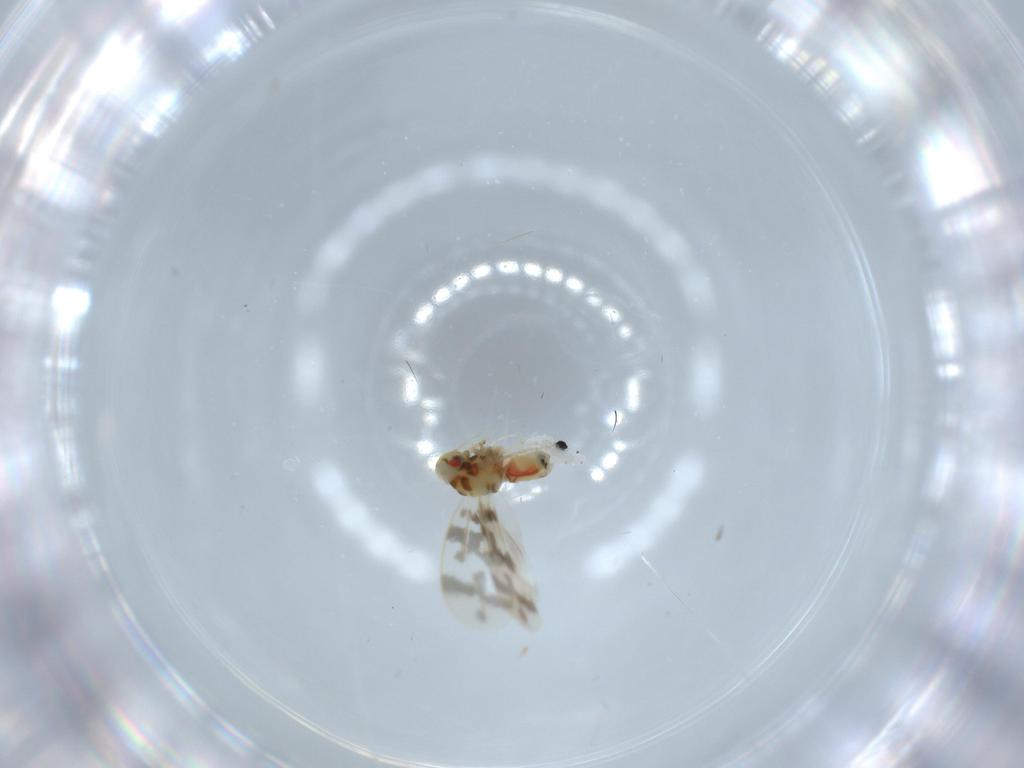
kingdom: Animalia
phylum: Arthropoda
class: Insecta
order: Hemiptera
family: Aleyrodidae
